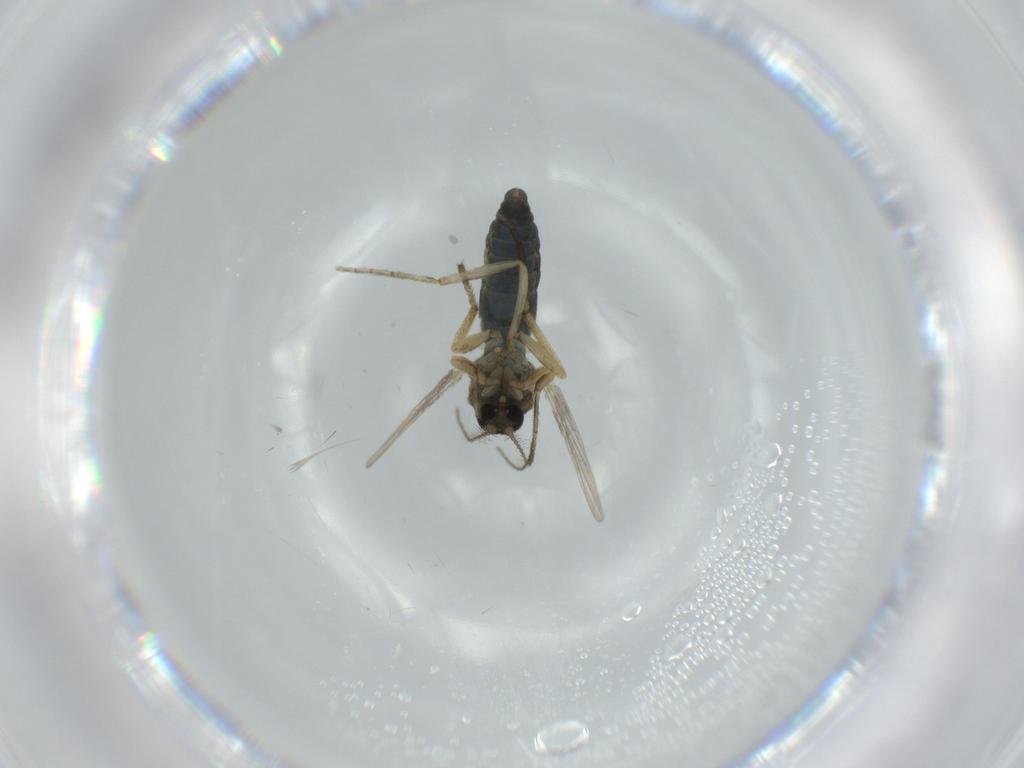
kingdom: Animalia
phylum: Arthropoda
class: Insecta
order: Diptera
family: Ceratopogonidae
